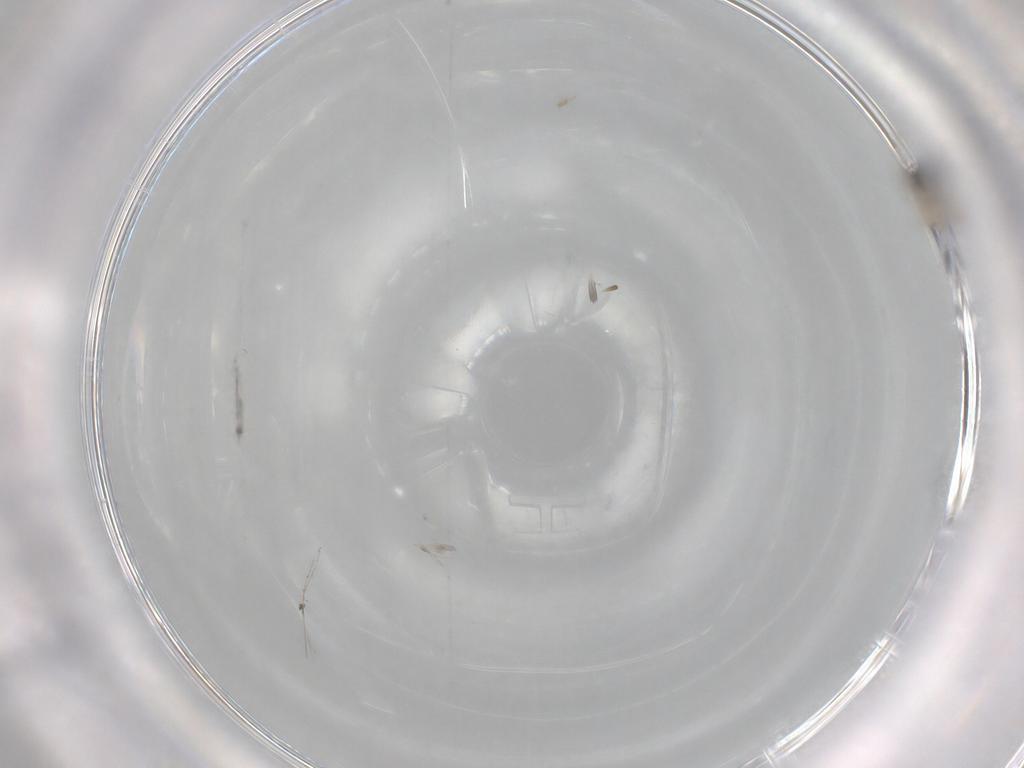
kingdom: Animalia
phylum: Arthropoda
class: Insecta
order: Diptera
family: Cecidomyiidae
